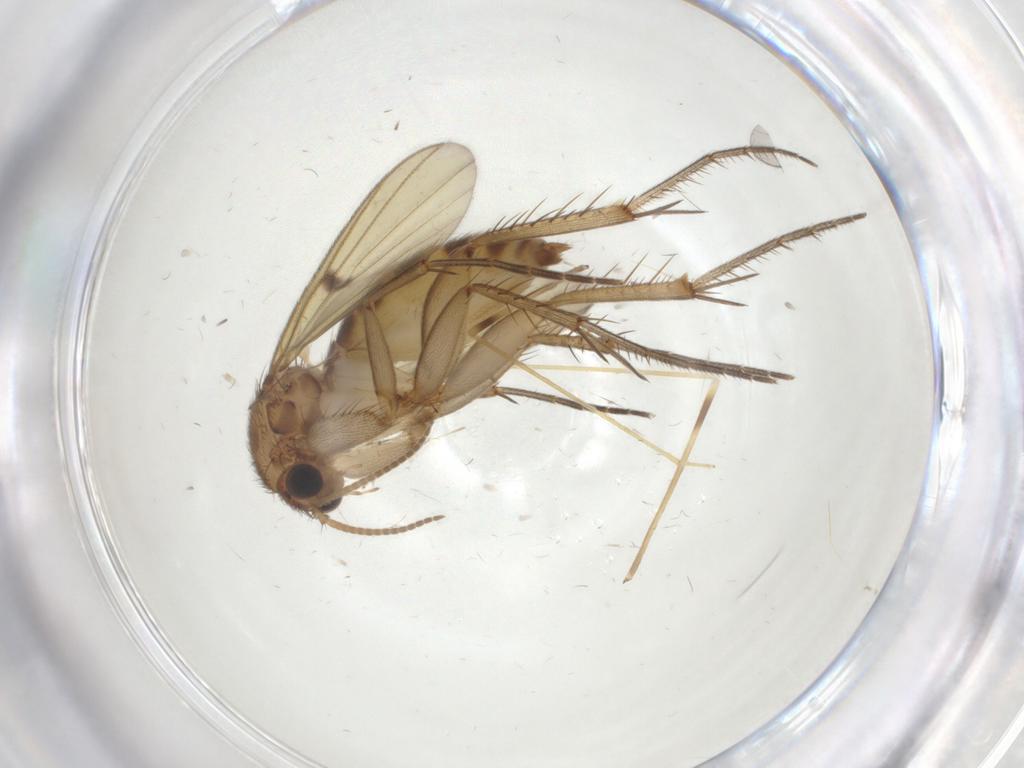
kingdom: Animalia
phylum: Arthropoda
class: Insecta
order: Diptera
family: Limoniidae
